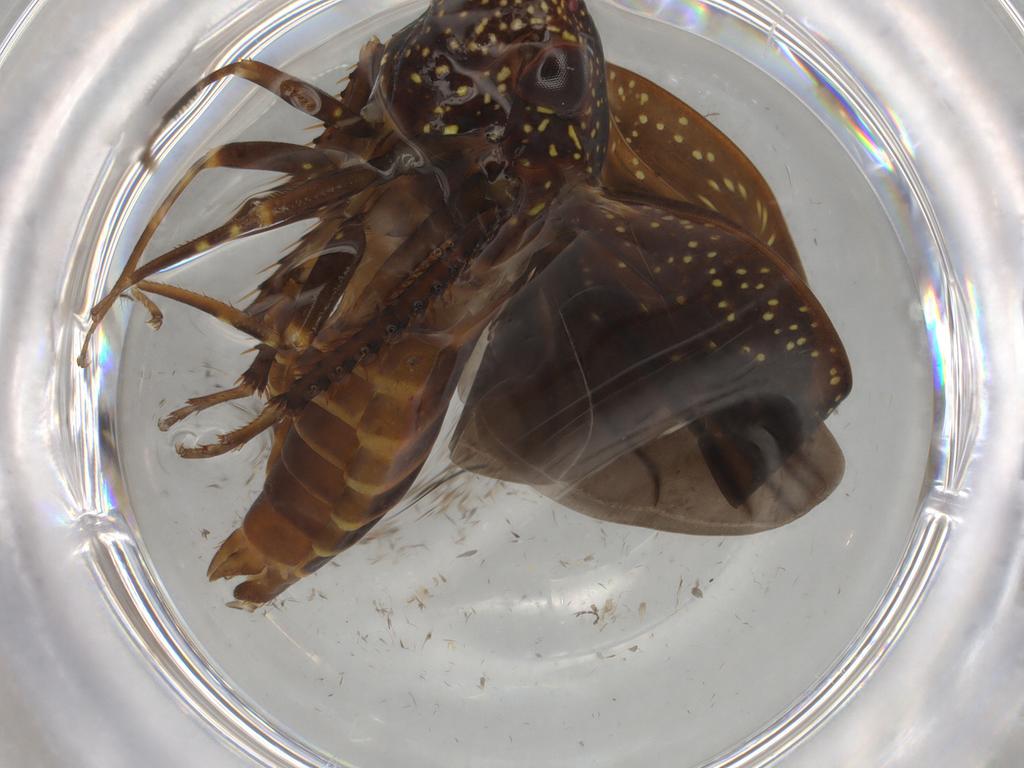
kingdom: Animalia
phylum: Arthropoda
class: Insecta
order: Hemiptera
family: Cicadellidae
